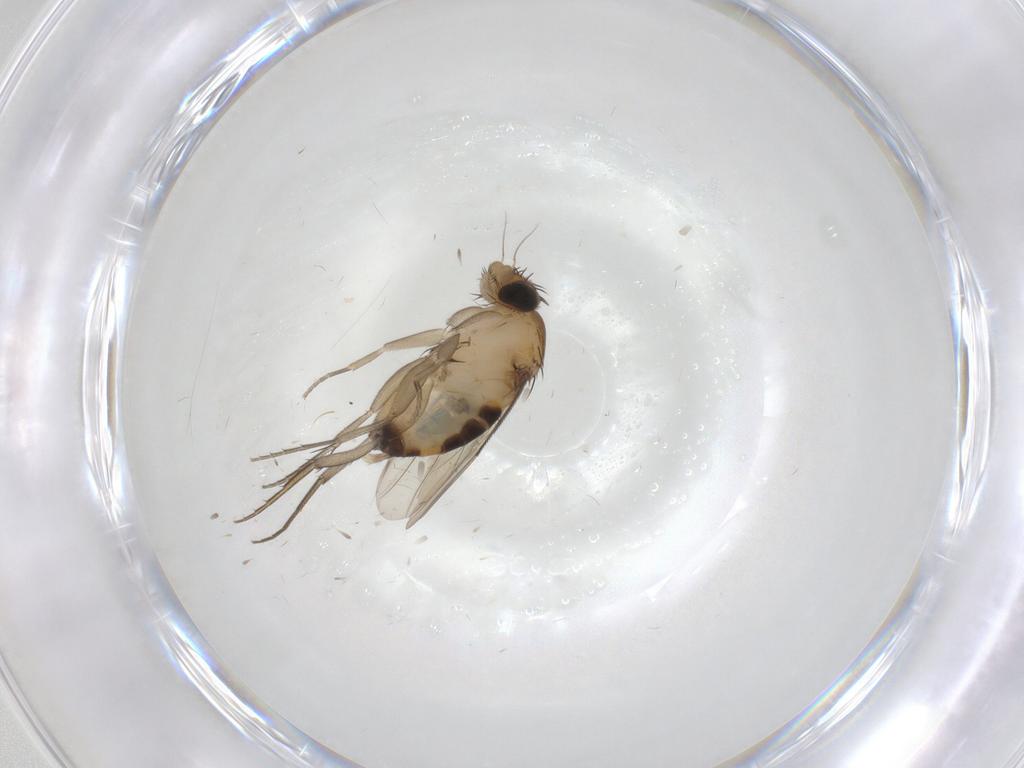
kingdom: Animalia
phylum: Arthropoda
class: Insecta
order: Diptera
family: Phoridae
